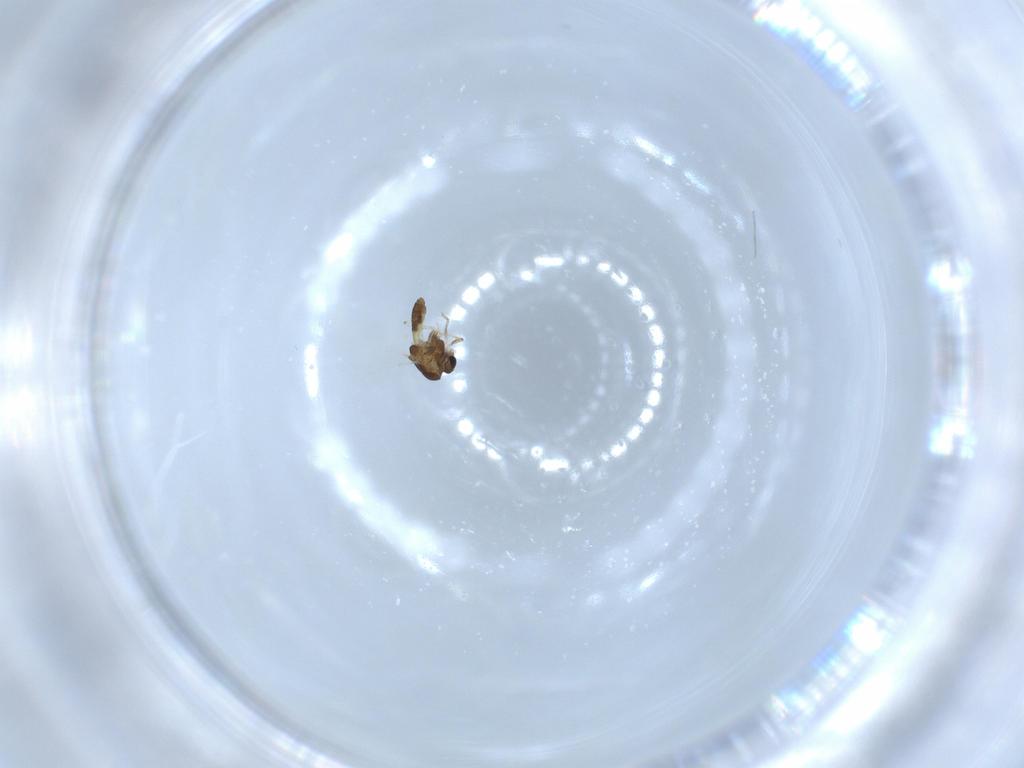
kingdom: Animalia
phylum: Arthropoda
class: Insecta
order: Diptera
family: Chironomidae
